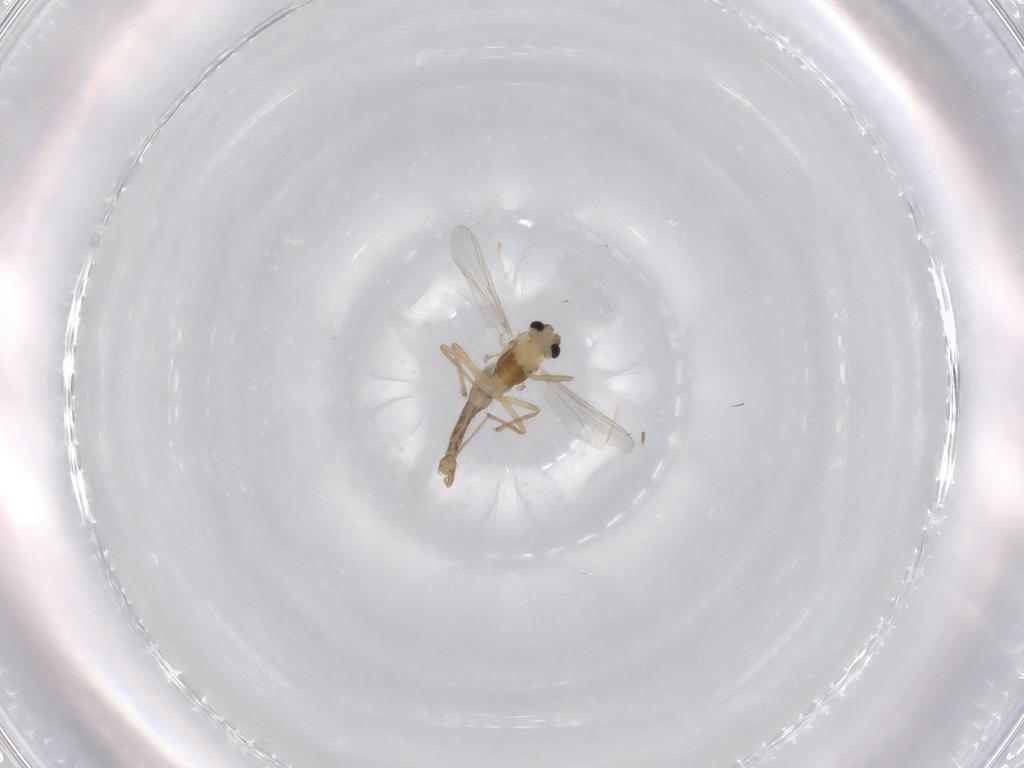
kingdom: Animalia
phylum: Arthropoda
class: Insecta
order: Diptera
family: Chironomidae
